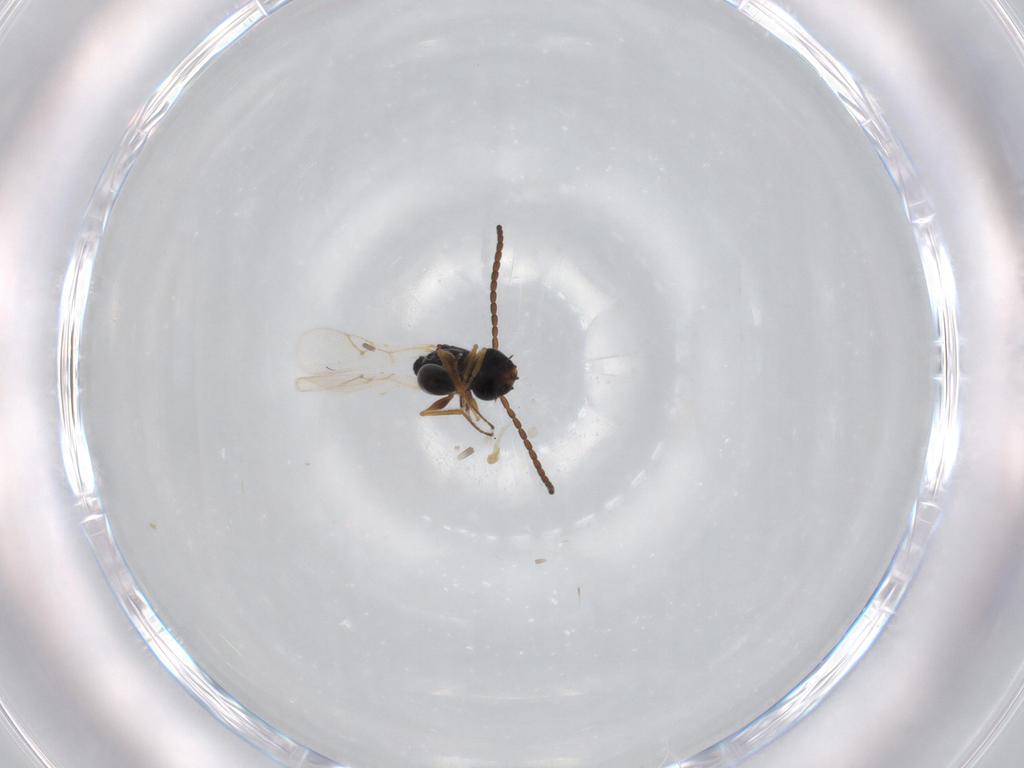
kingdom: Animalia
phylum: Arthropoda
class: Insecta
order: Hymenoptera
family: Figitidae
